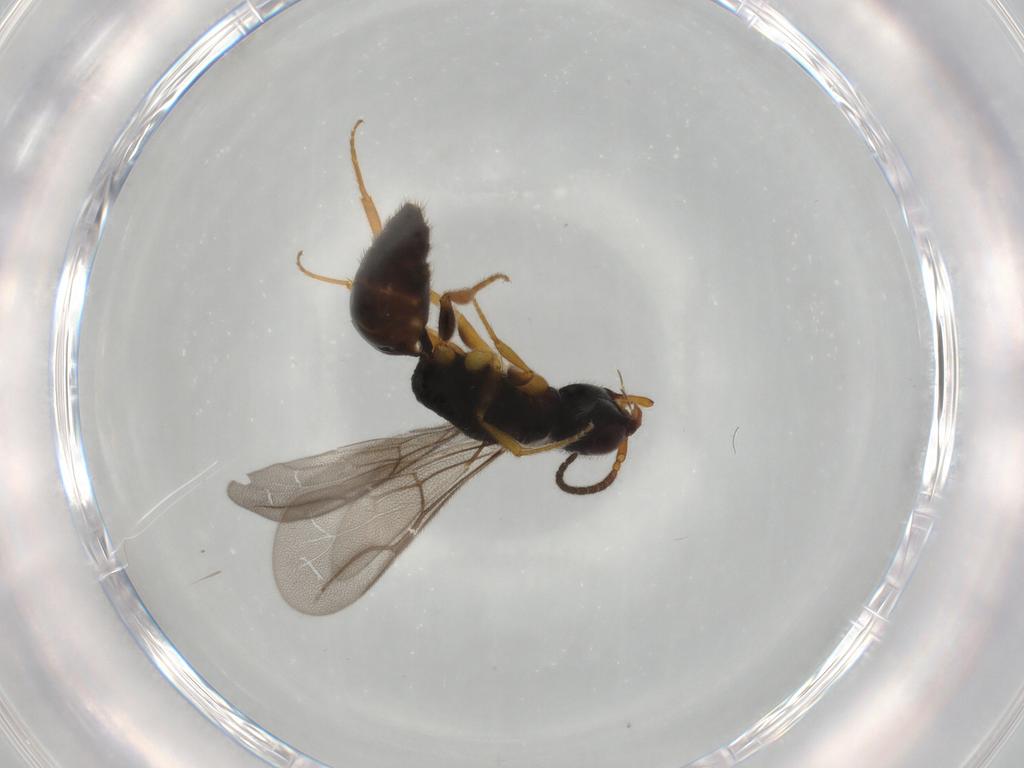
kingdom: Animalia
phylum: Arthropoda
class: Insecta
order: Hymenoptera
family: Bethylidae
